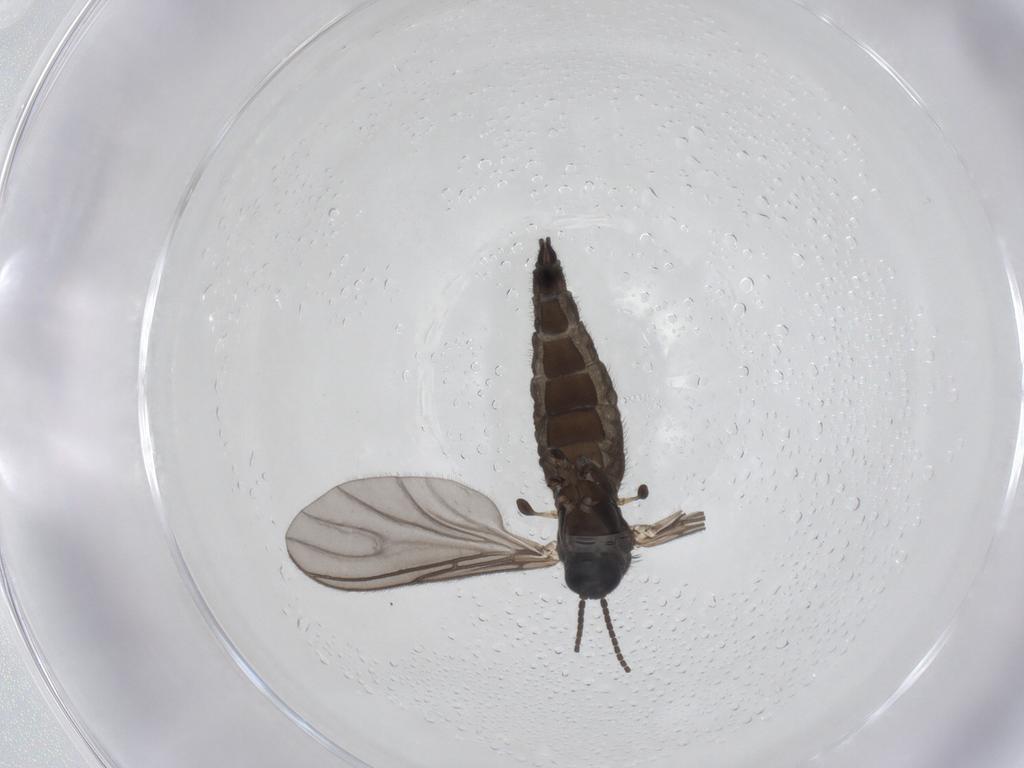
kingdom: Animalia
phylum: Arthropoda
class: Insecta
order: Diptera
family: Sciaridae
